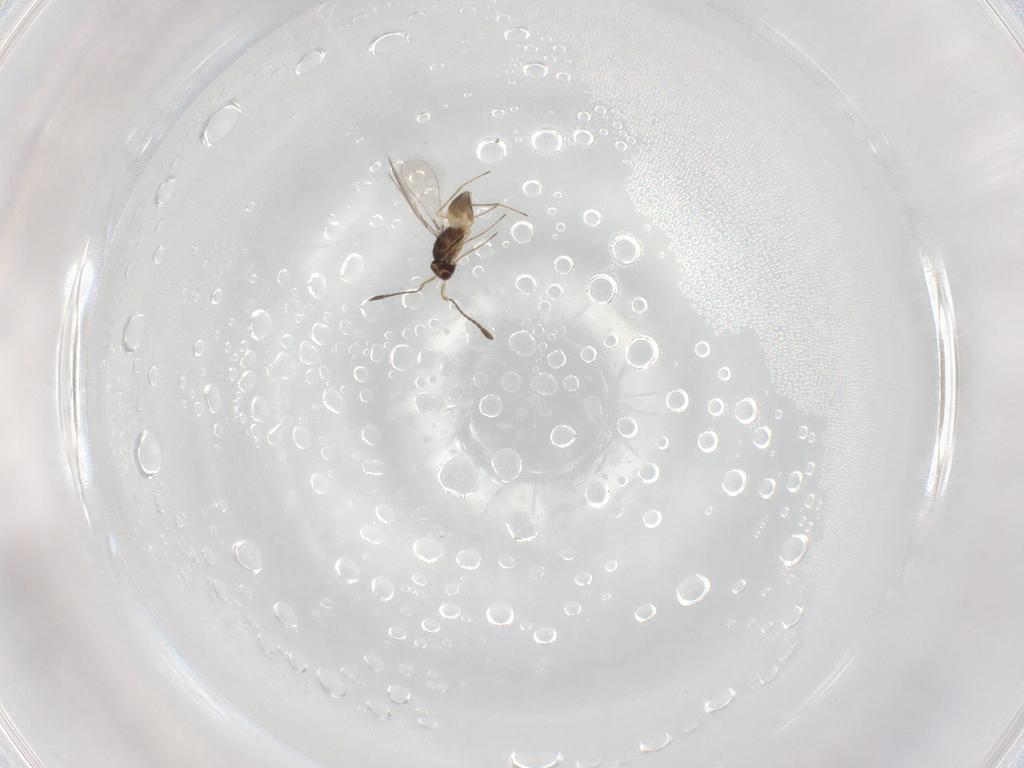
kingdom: Animalia
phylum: Arthropoda
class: Insecta
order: Hymenoptera
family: Mymaridae
